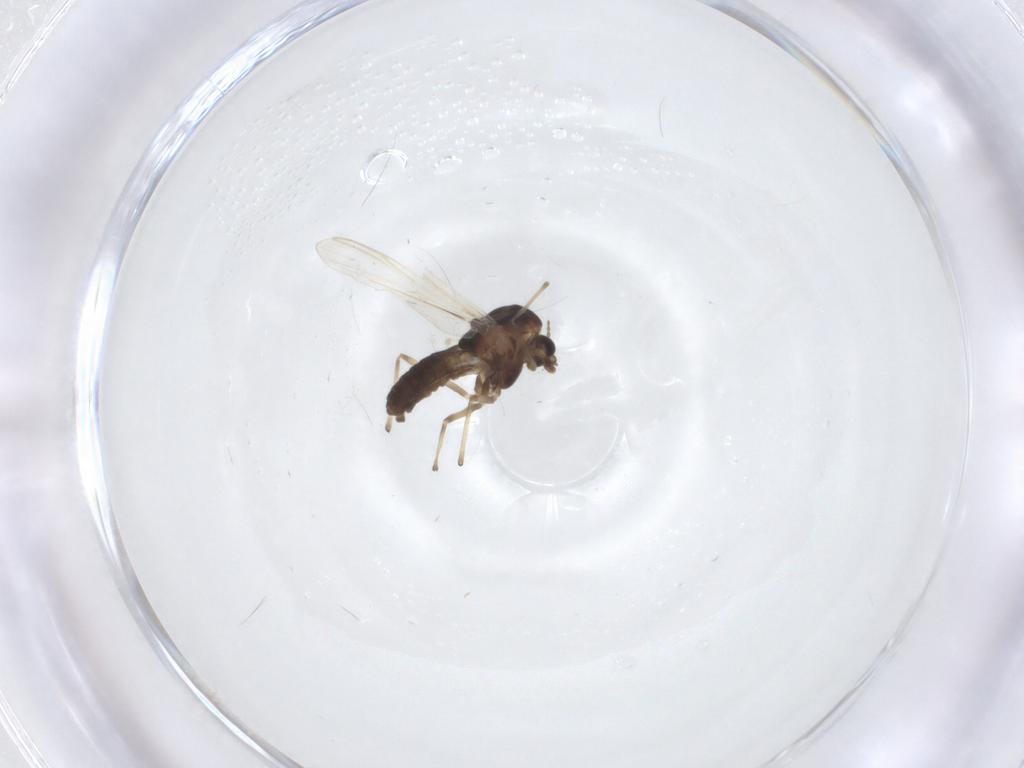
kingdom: Animalia
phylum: Arthropoda
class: Insecta
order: Diptera
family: Chironomidae
